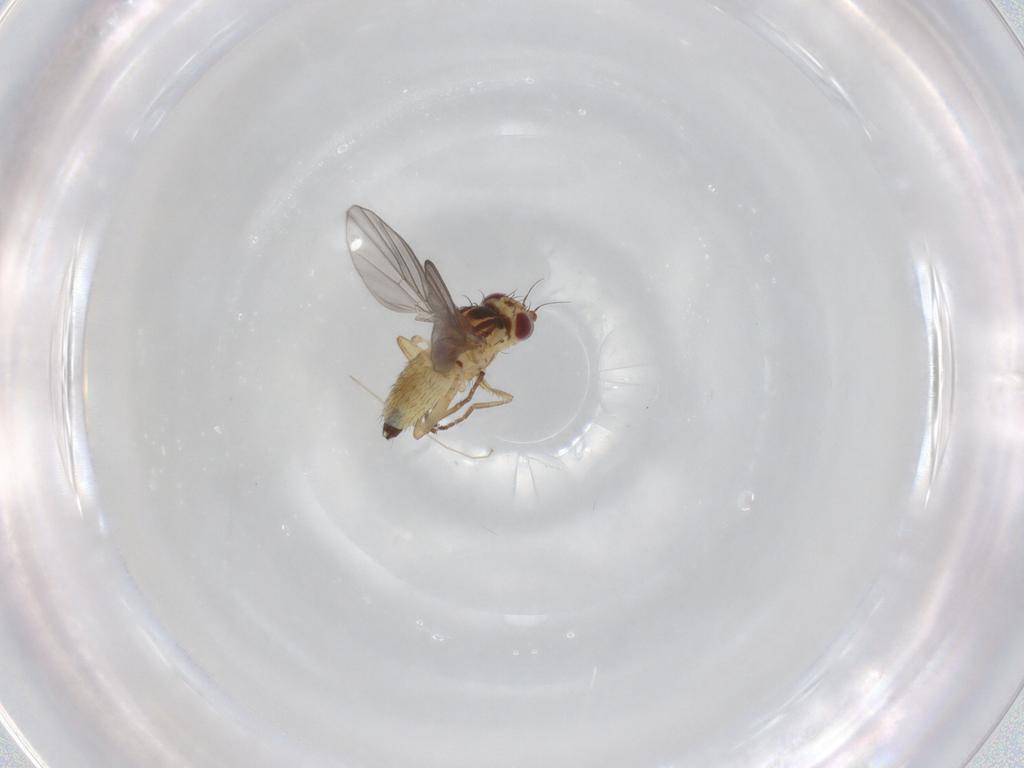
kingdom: Animalia
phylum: Arthropoda
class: Insecta
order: Diptera
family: Agromyzidae
